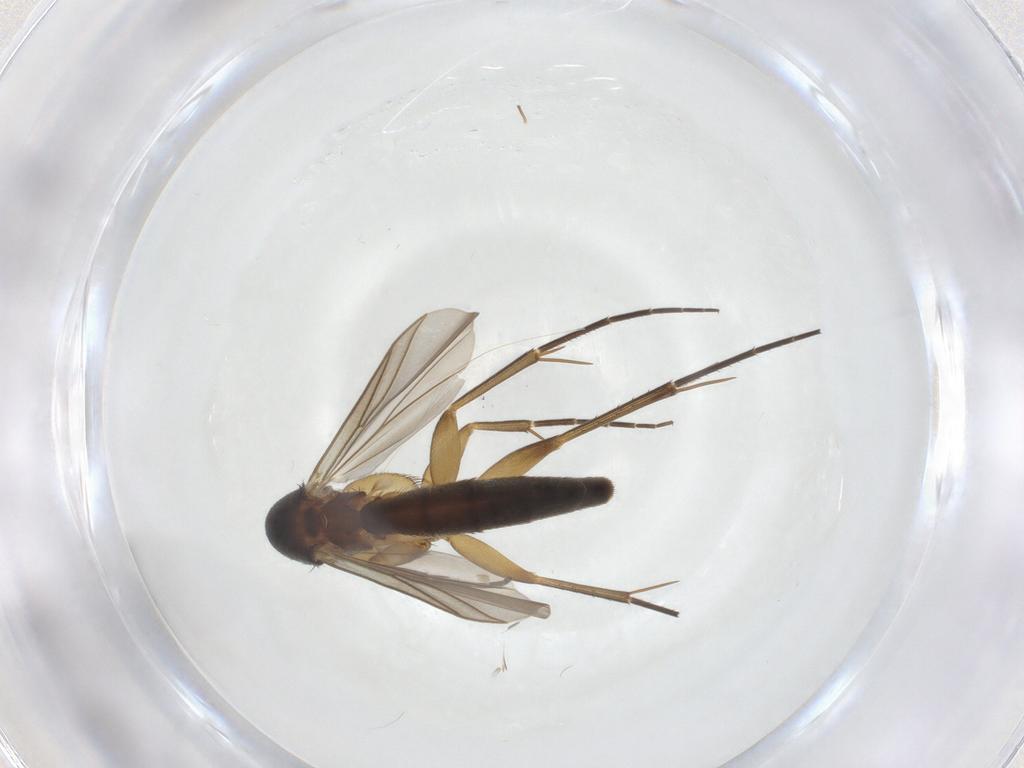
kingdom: Animalia
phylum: Arthropoda
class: Insecta
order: Diptera
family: Mycetophilidae
